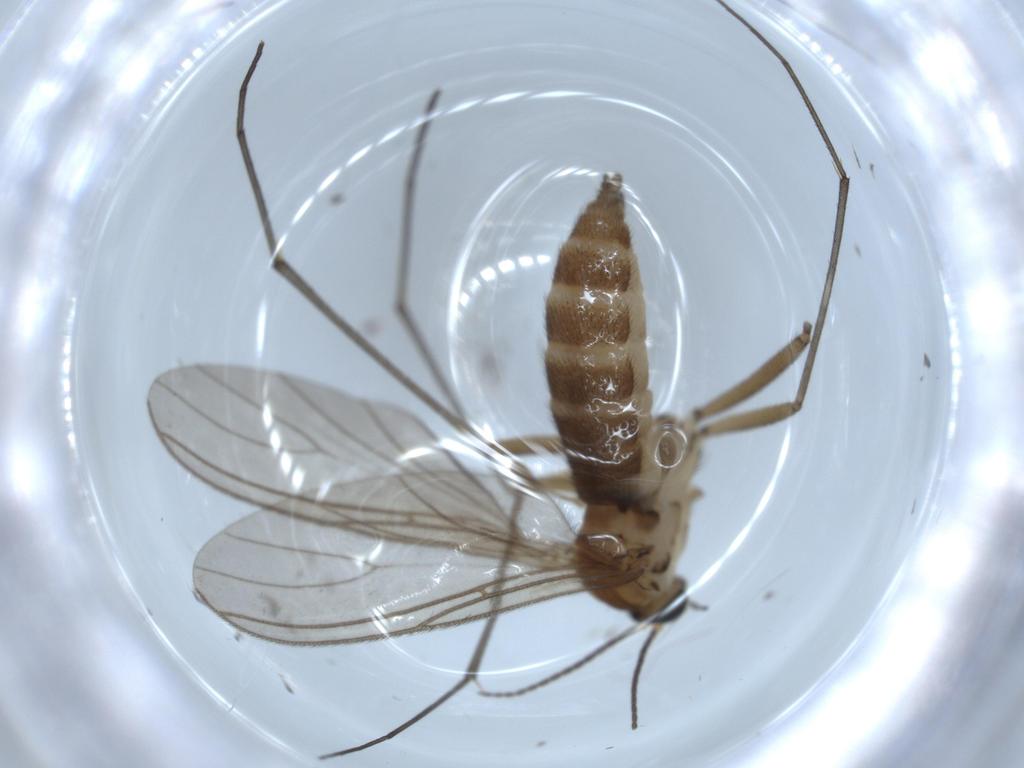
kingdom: Animalia
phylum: Arthropoda
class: Insecta
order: Diptera
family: Sciaridae
